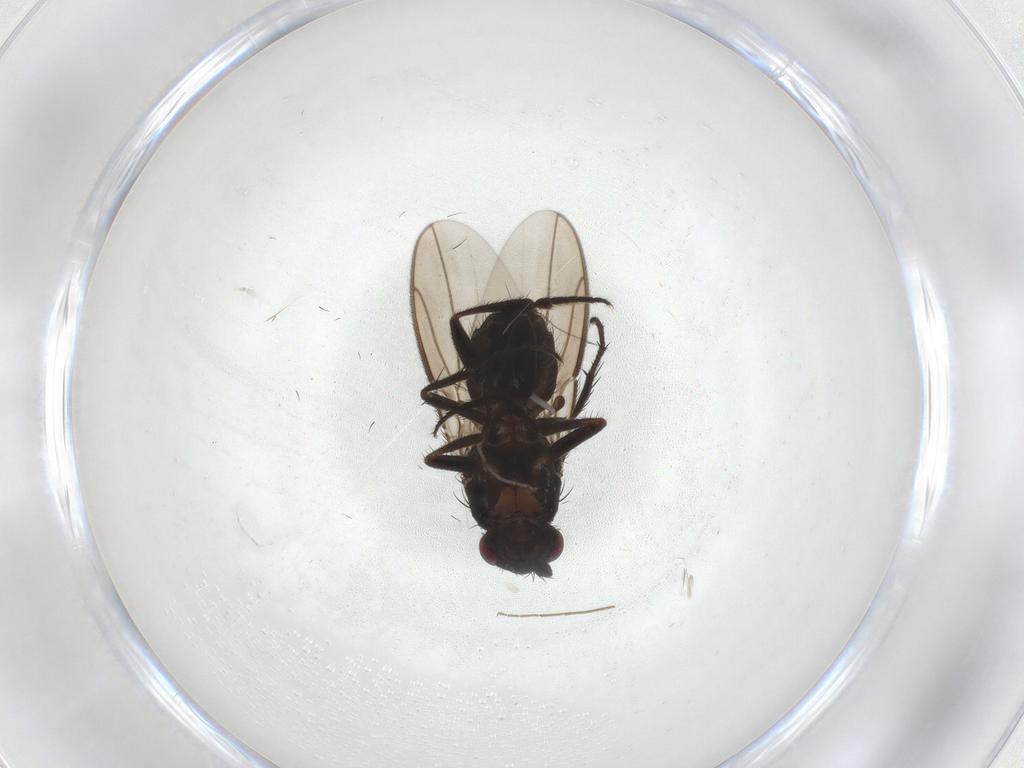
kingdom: Animalia
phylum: Arthropoda
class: Insecta
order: Diptera
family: Sphaeroceridae
